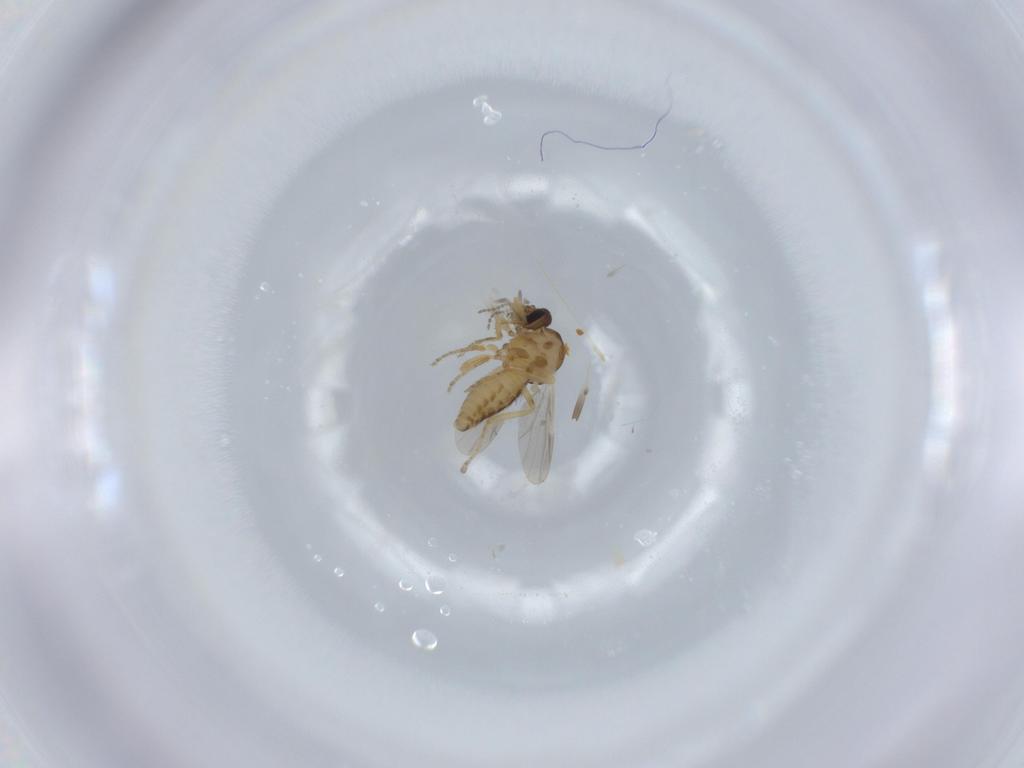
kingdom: Animalia
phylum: Arthropoda
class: Insecta
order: Diptera
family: Ceratopogonidae
